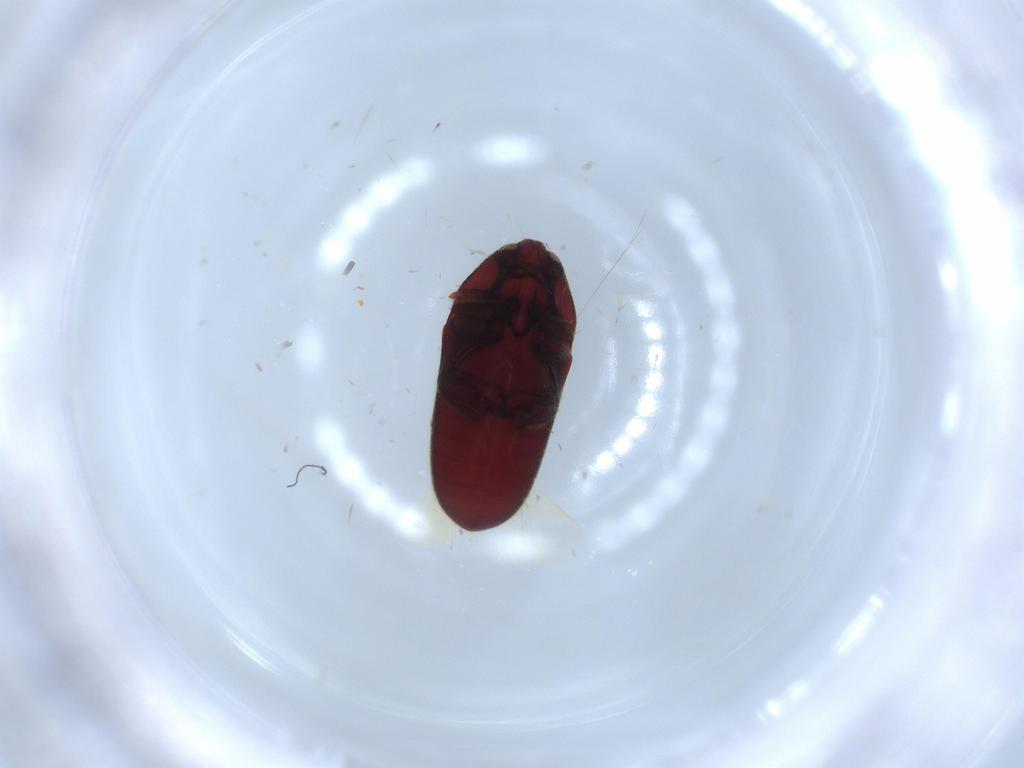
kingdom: Animalia
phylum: Arthropoda
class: Insecta
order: Coleoptera
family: Throscidae
